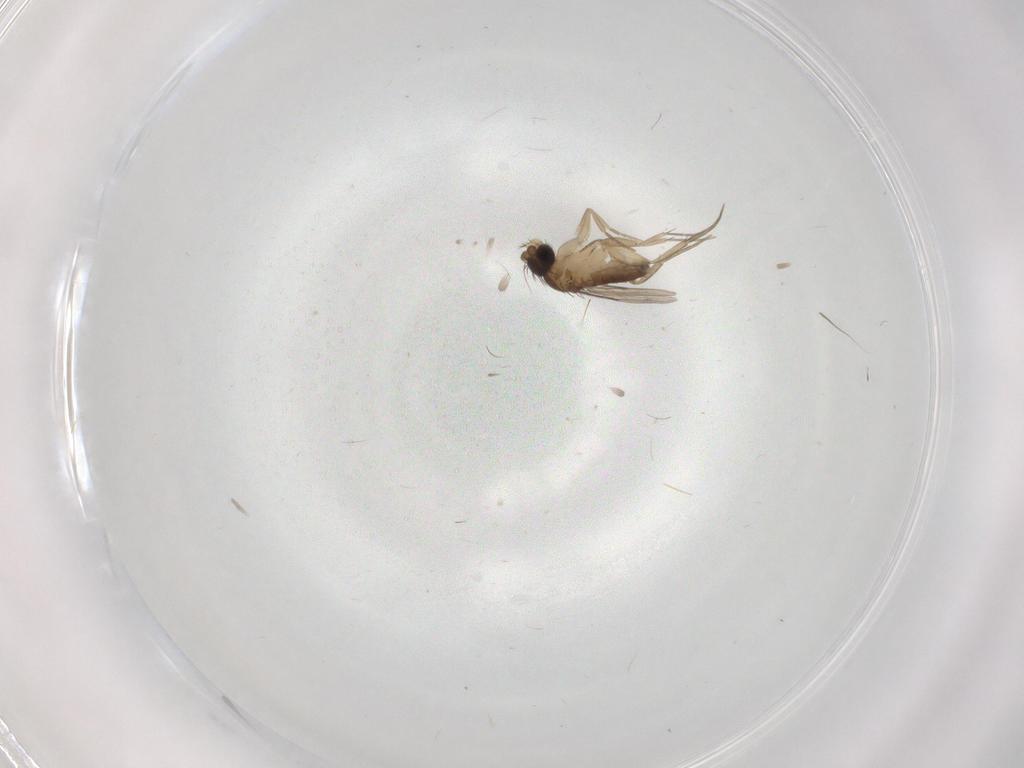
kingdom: Animalia
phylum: Arthropoda
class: Insecta
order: Diptera
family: Phoridae
